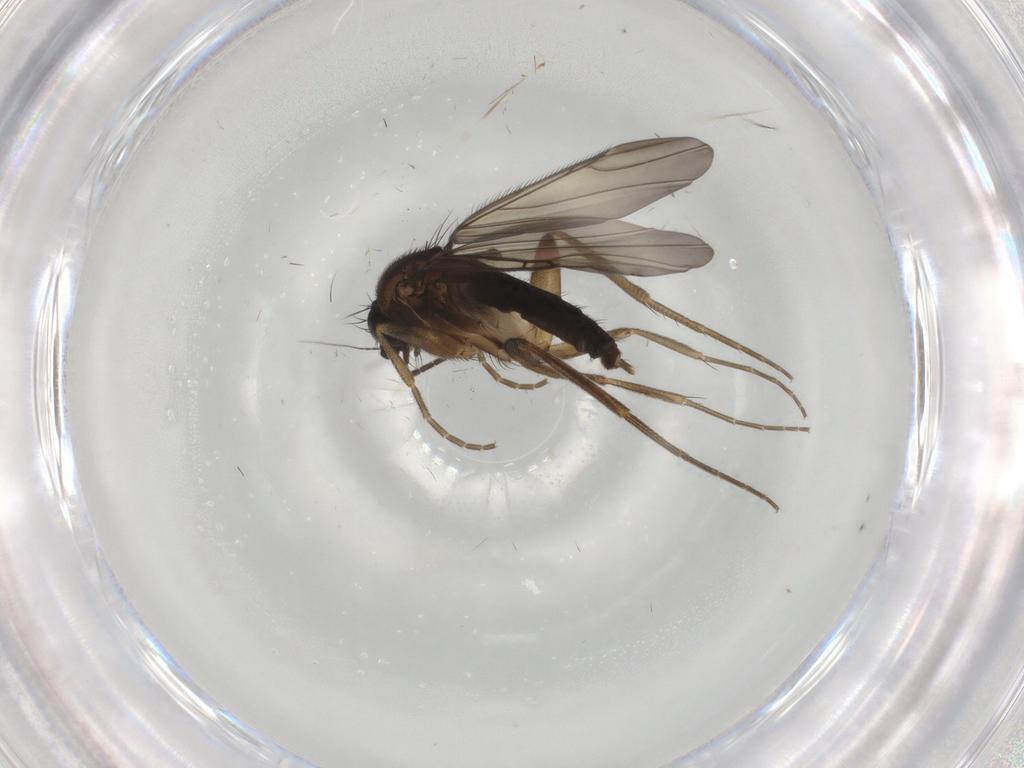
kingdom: Animalia
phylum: Arthropoda
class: Insecta
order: Diptera
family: Phoridae
